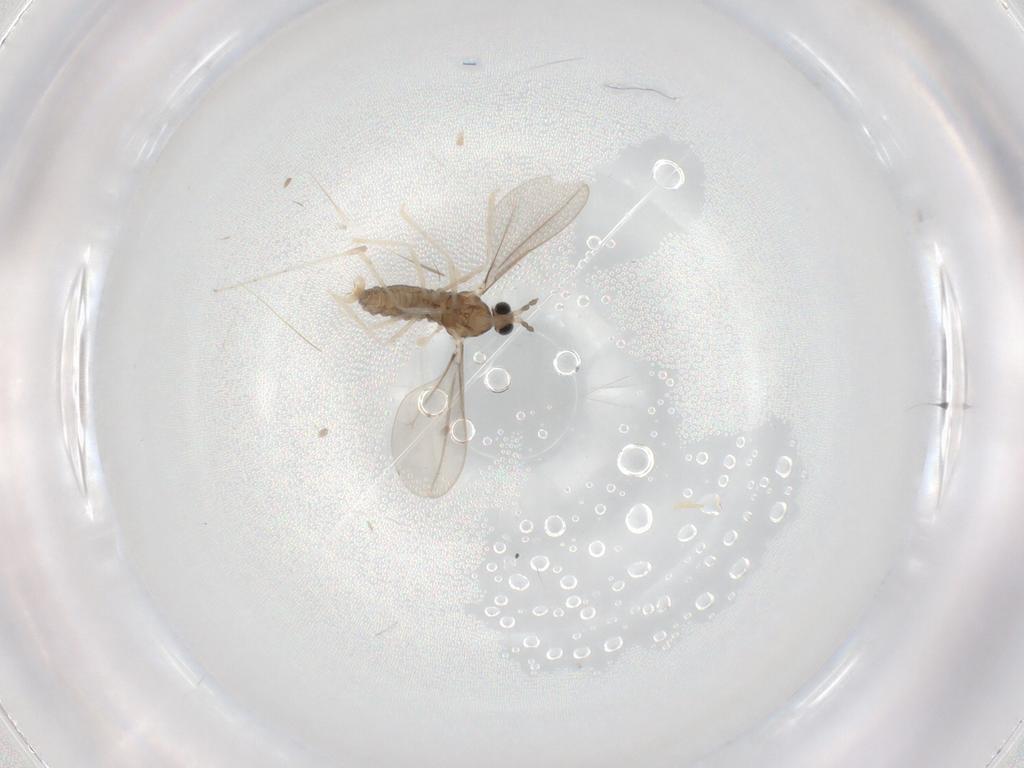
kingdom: Animalia
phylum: Arthropoda
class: Insecta
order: Diptera
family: Cecidomyiidae
